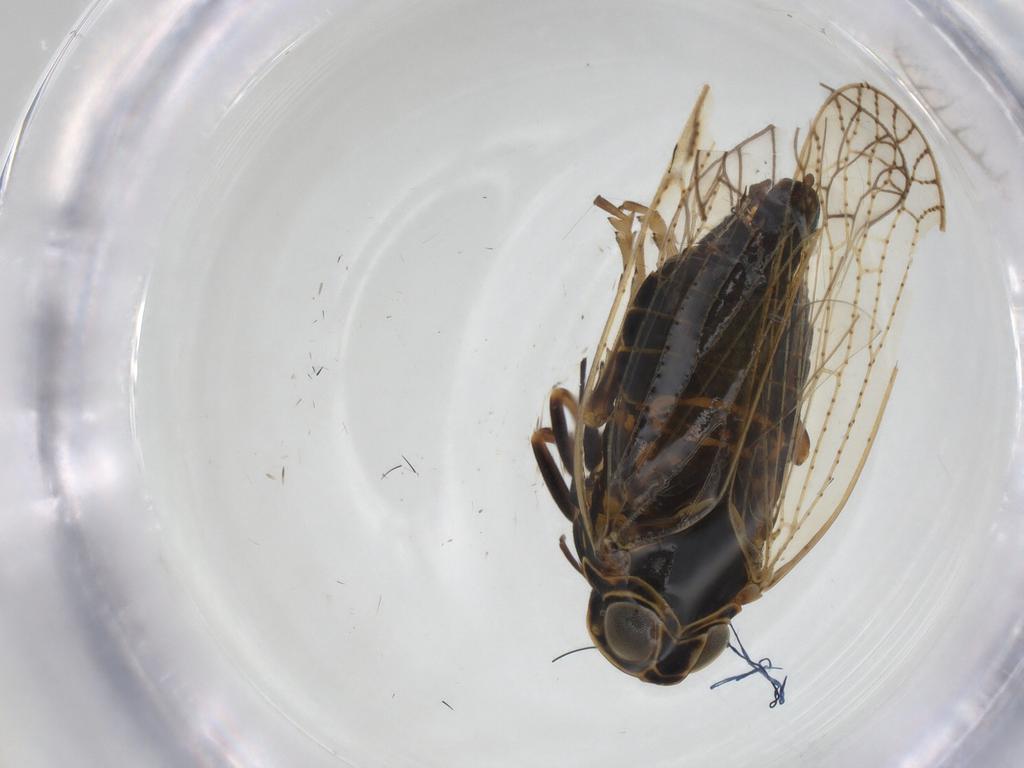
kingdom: Animalia
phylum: Arthropoda
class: Insecta
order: Hemiptera
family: Cixiidae
